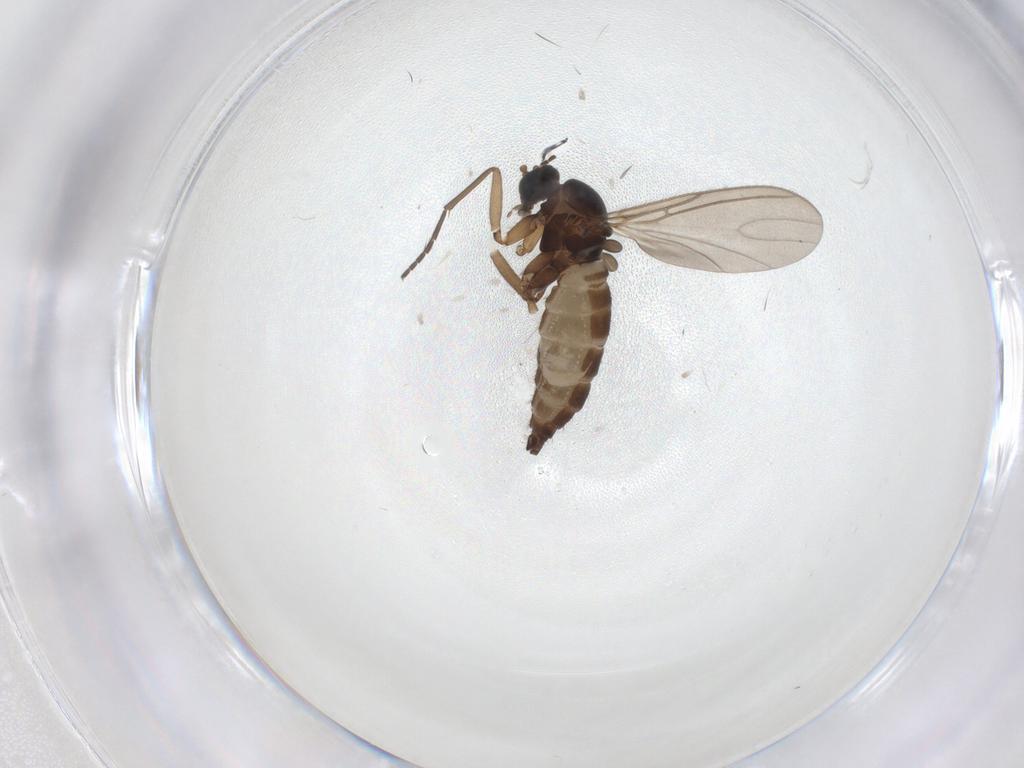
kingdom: Animalia
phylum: Arthropoda
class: Insecta
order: Diptera
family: Sciaridae
